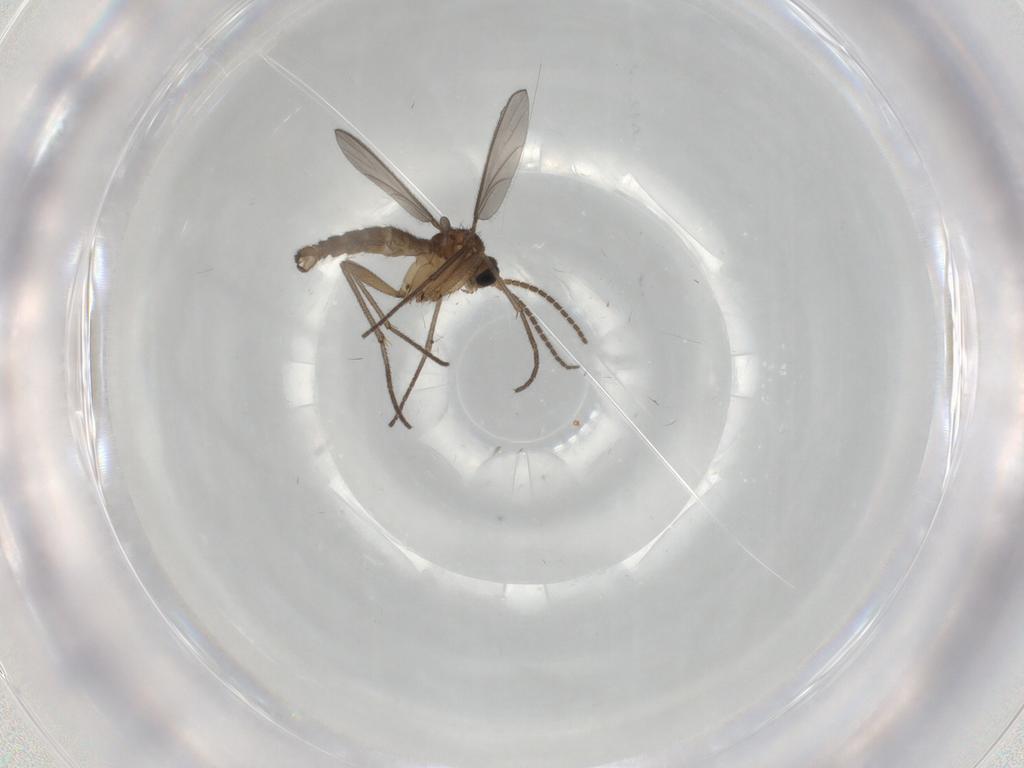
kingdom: Animalia
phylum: Arthropoda
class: Insecta
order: Diptera
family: Sciaridae
